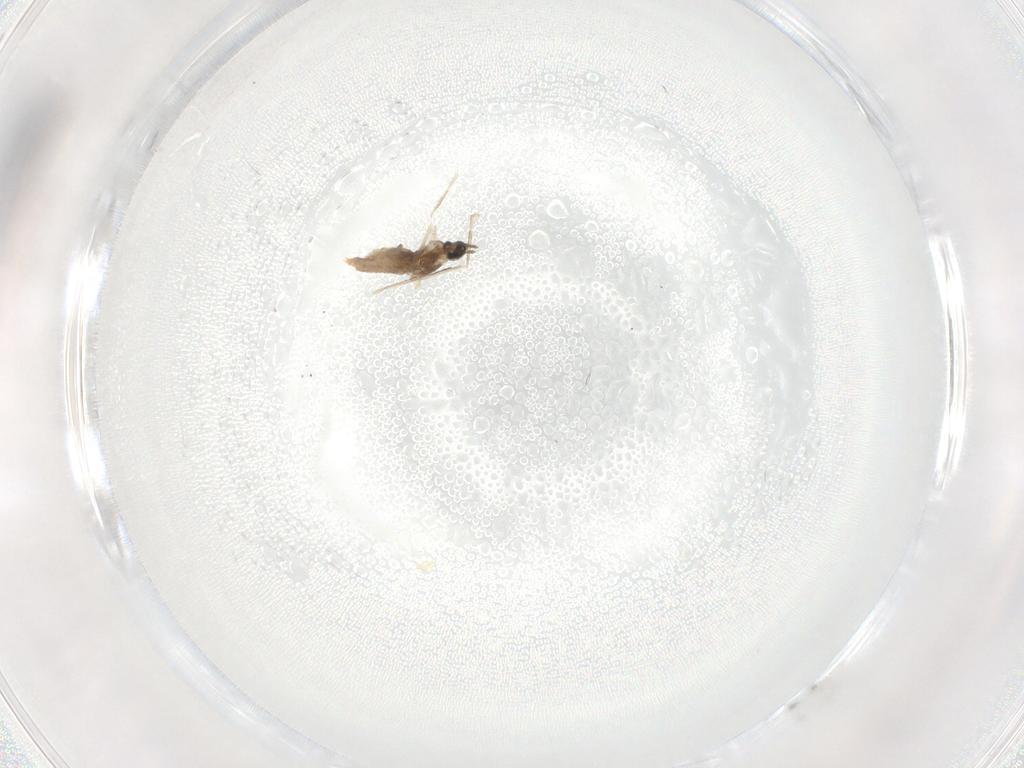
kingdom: Animalia
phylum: Arthropoda
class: Insecta
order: Diptera
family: Cecidomyiidae
